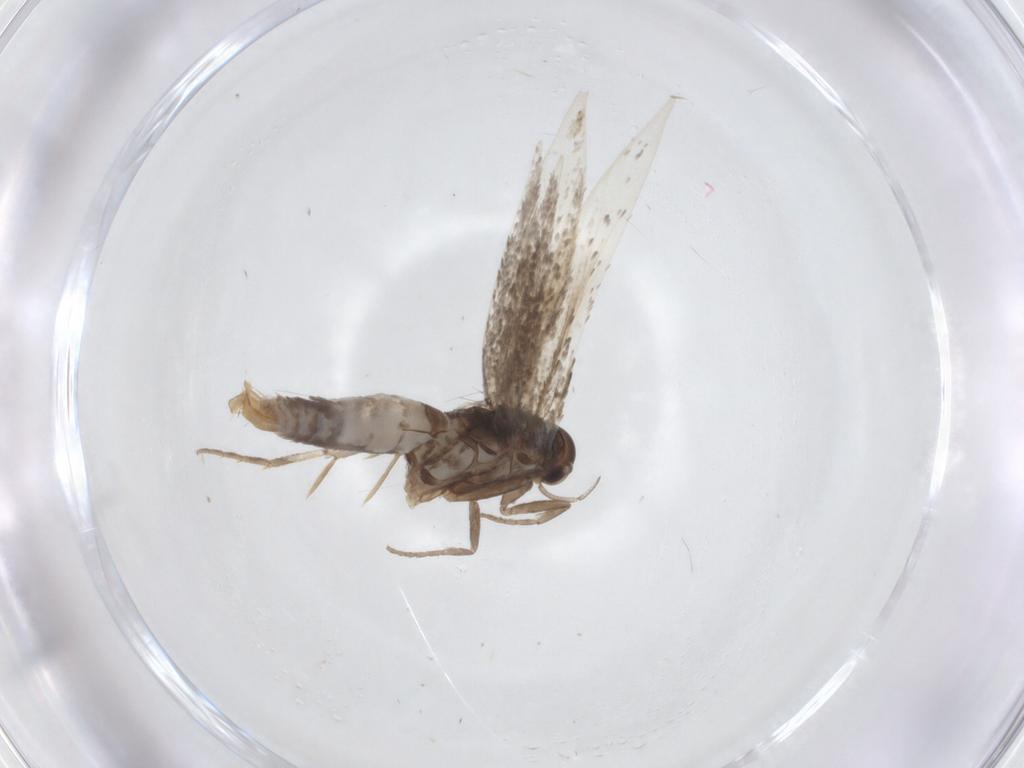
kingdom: Animalia
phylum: Arthropoda
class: Insecta
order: Lepidoptera
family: Elachistidae
